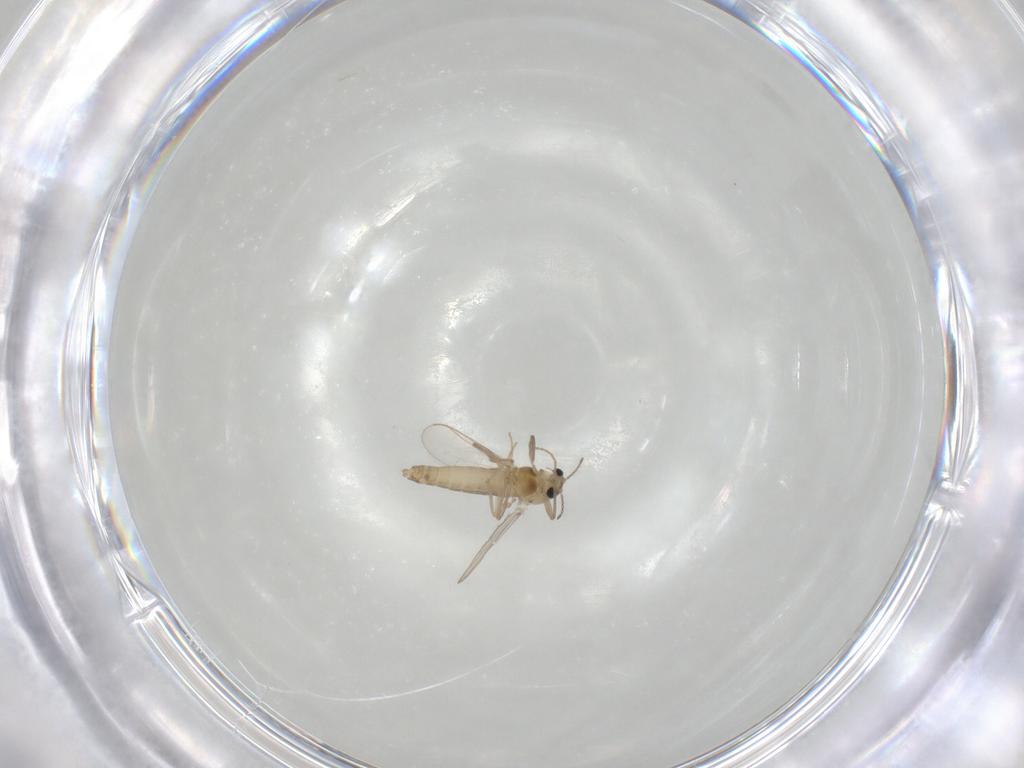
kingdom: Animalia
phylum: Arthropoda
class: Insecta
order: Diptera
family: Chironomidae
